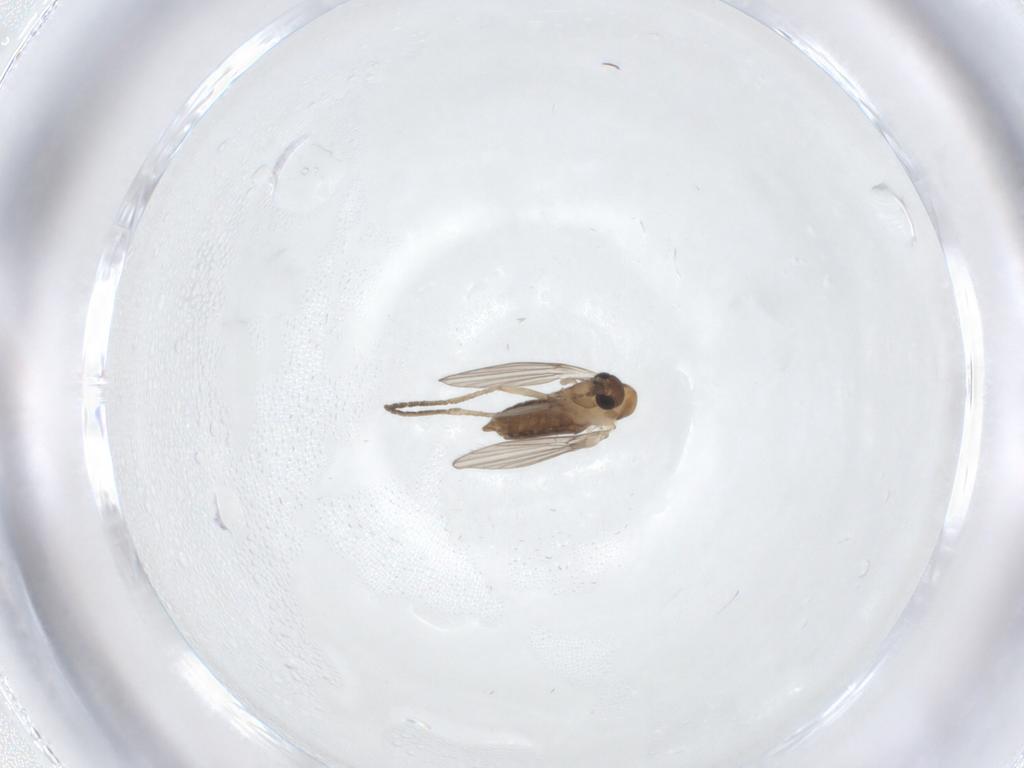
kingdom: Animalia
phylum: Arthropoda
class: Insecta
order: Diptera
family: Psychodidae
